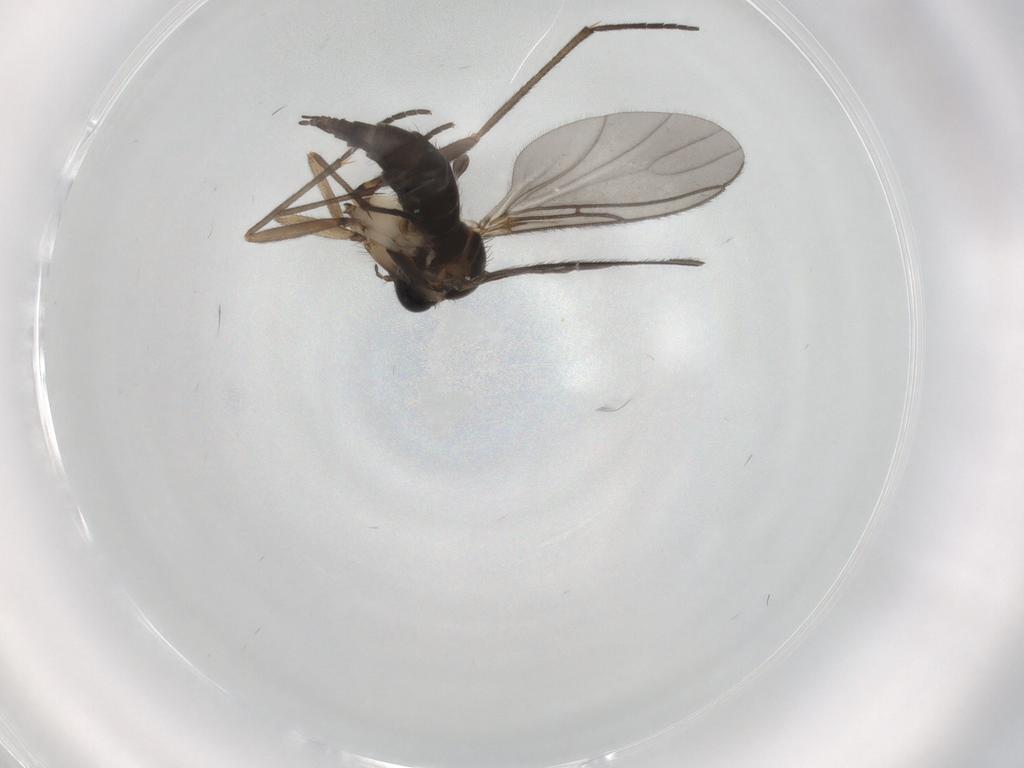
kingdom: Animalia
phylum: Arthropoda
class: Insecta
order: Diptera
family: Sciaridae
